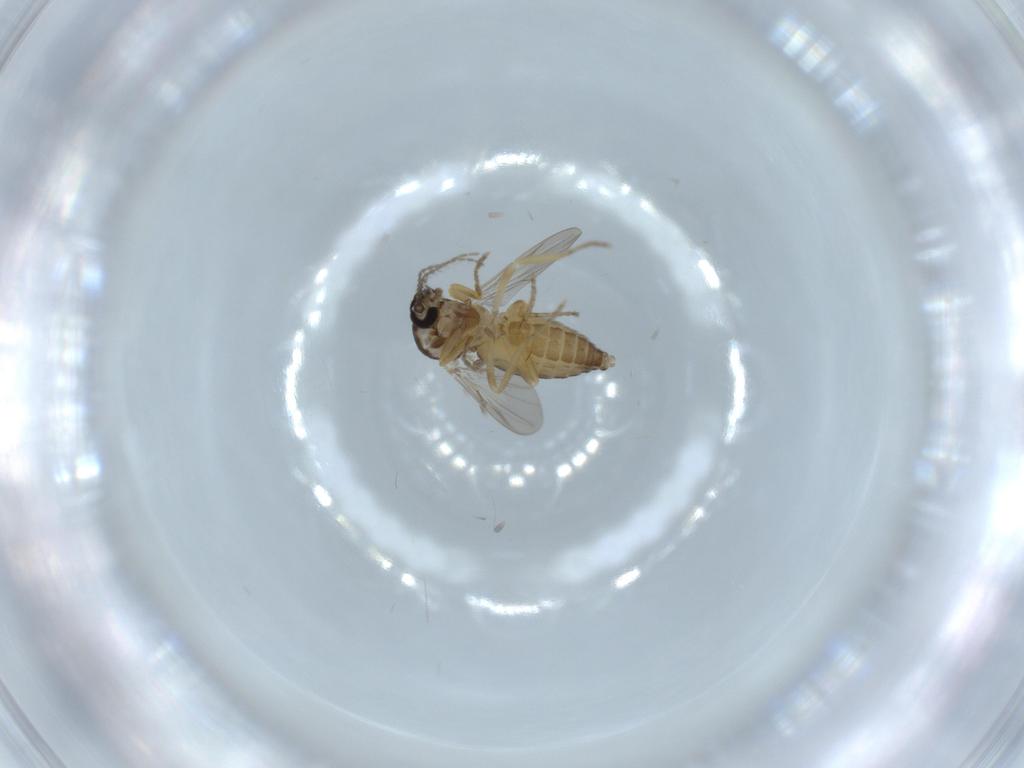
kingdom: Animalia
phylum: Arthropoda
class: Insecta
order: Diptera
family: Ceratopogonidae
